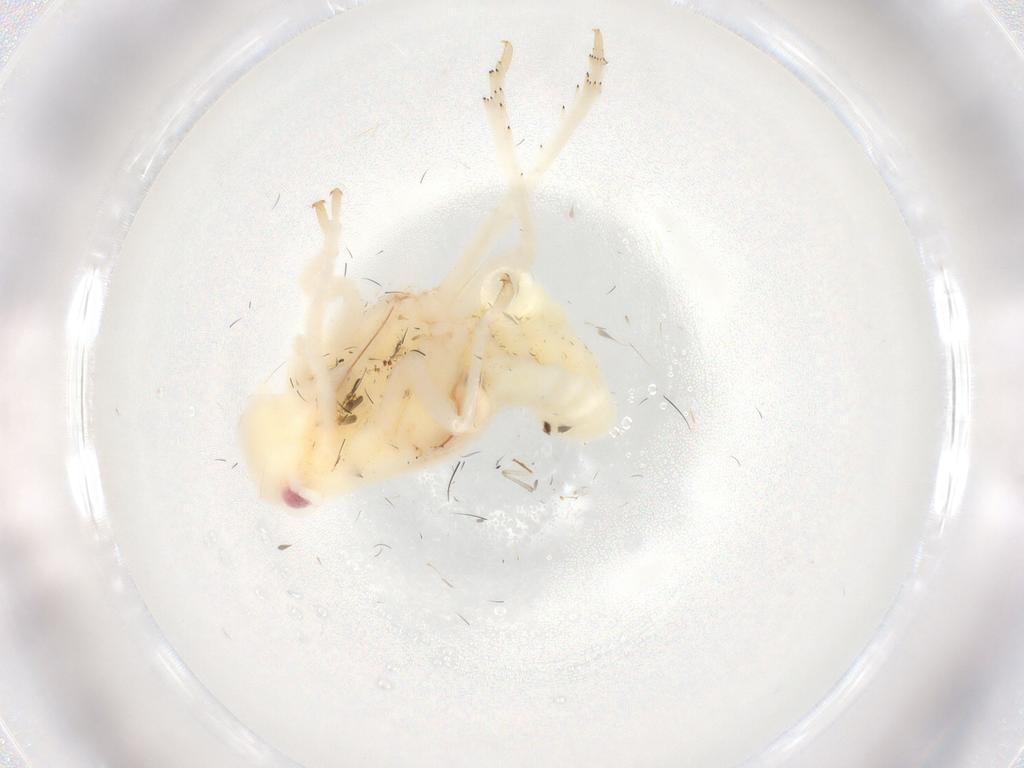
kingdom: Animalia
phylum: Arthropoda
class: Insecta
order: Hemiptera
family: Flatidae
